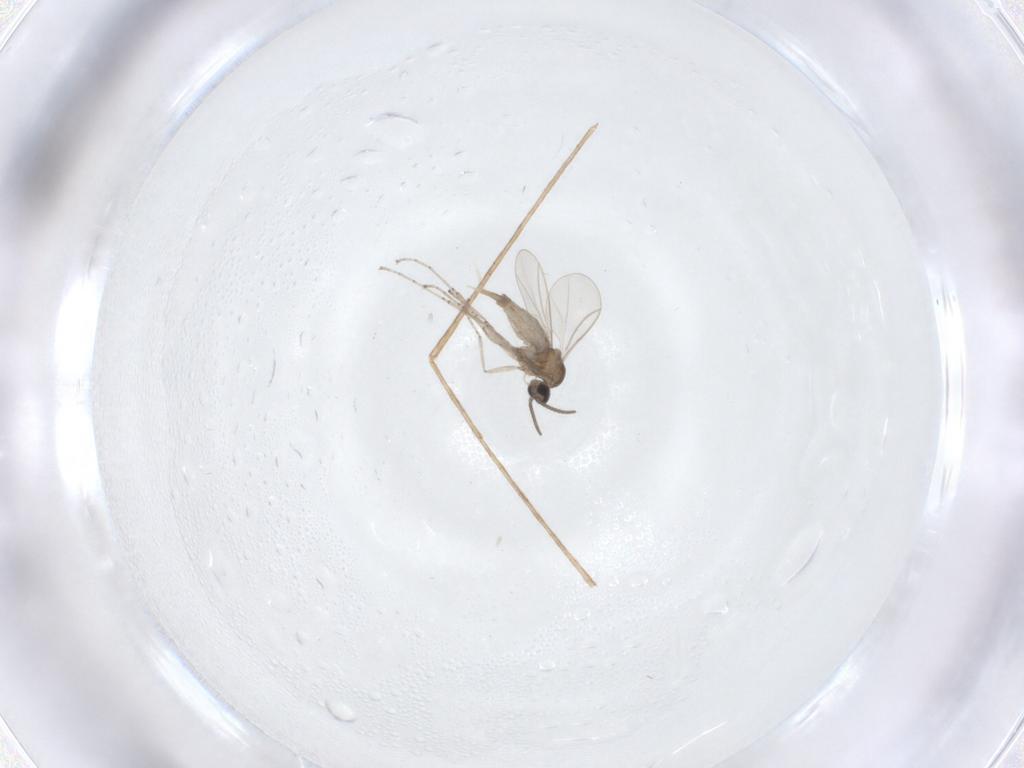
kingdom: Animalia
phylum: Arthropoda
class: Insecta
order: Diptera
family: Cecidomyiidae
